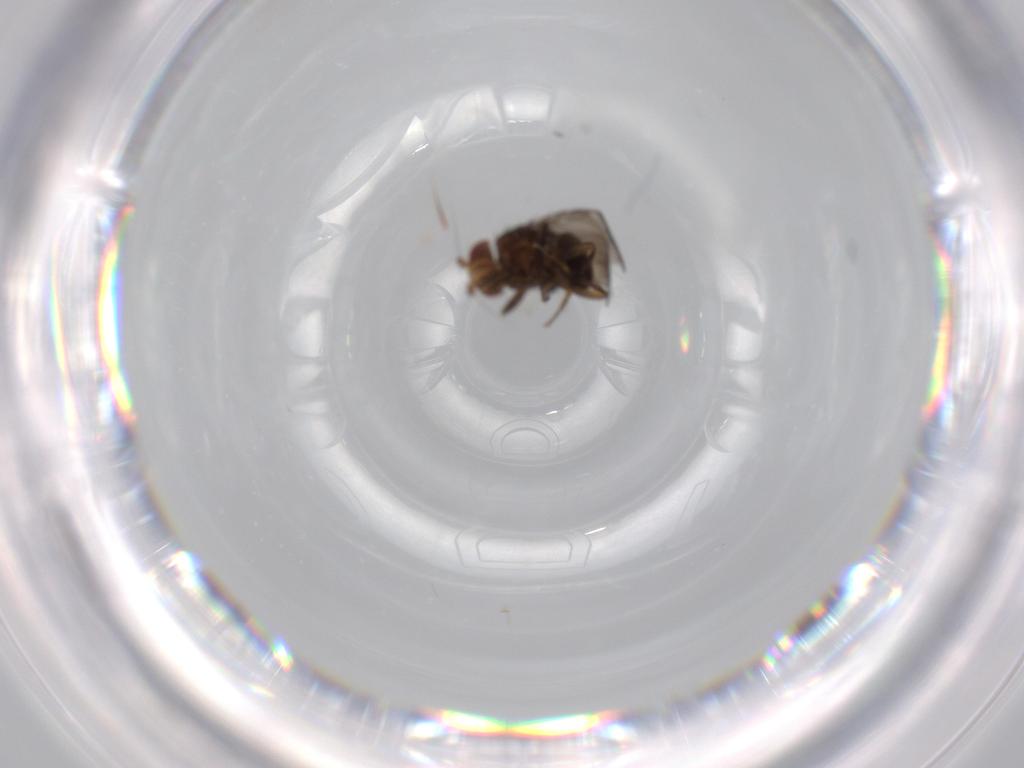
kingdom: Animalia
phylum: Arthropoda
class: Insecta
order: Diptera
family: Chironomidae
